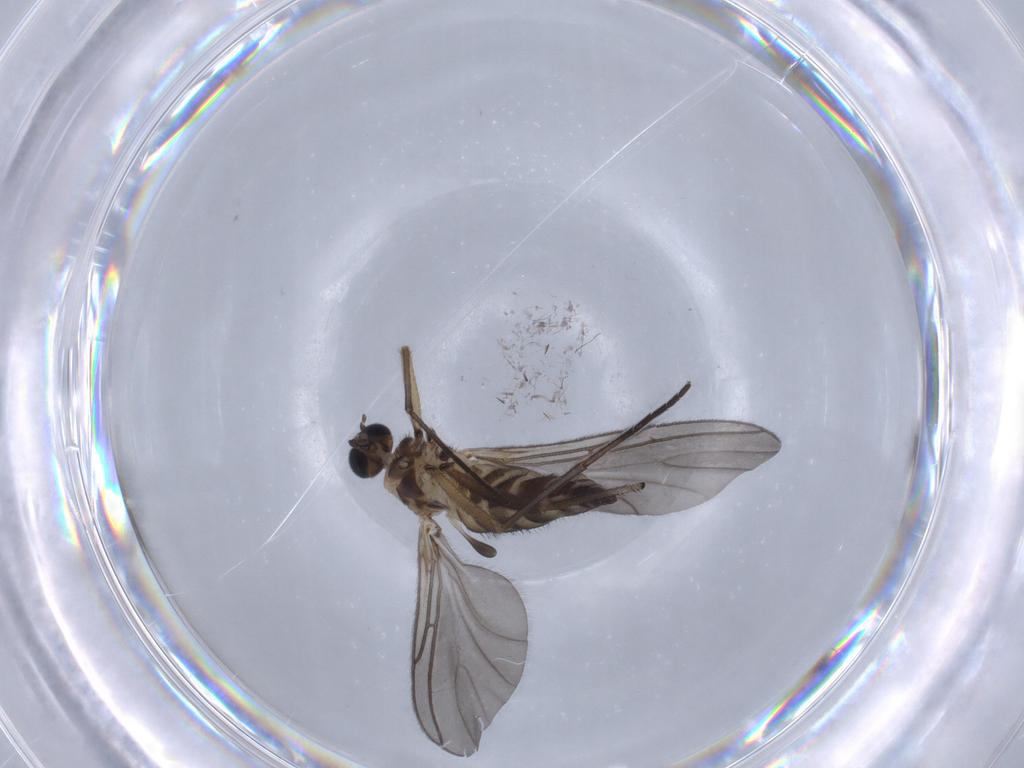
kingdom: Animalia
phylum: Arthropoda
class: Insecta
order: Diptera
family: Sciaridae
